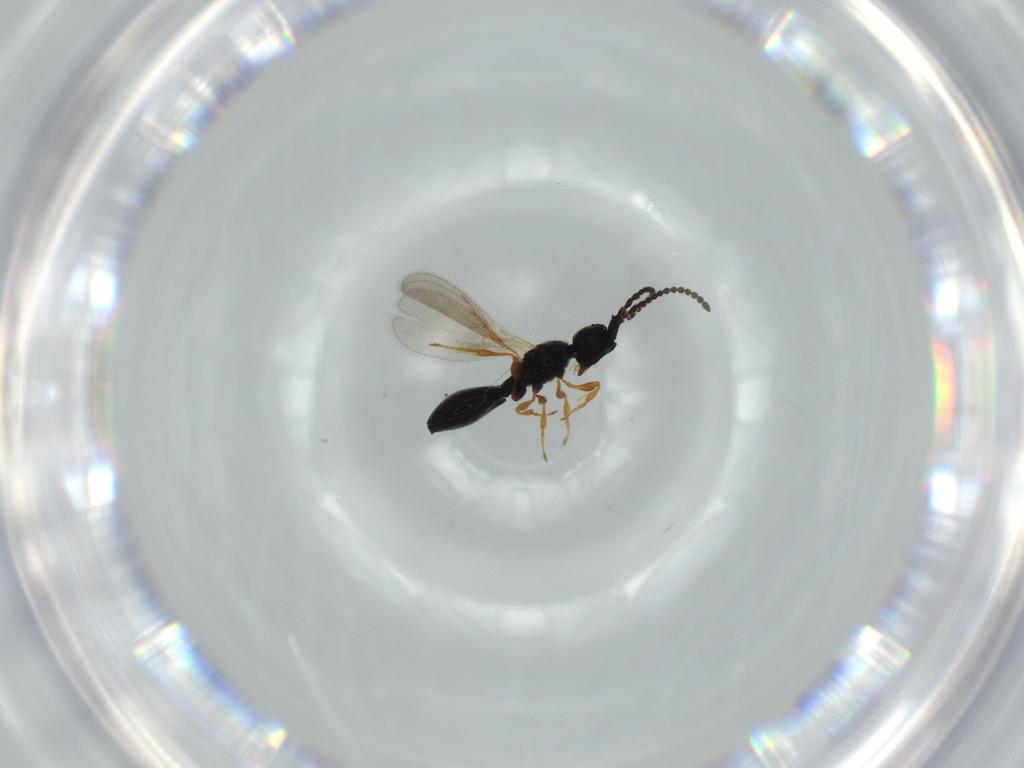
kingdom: Animalia
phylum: Arthropoda
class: Insecta
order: Hymenoptera
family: Diapriidae
